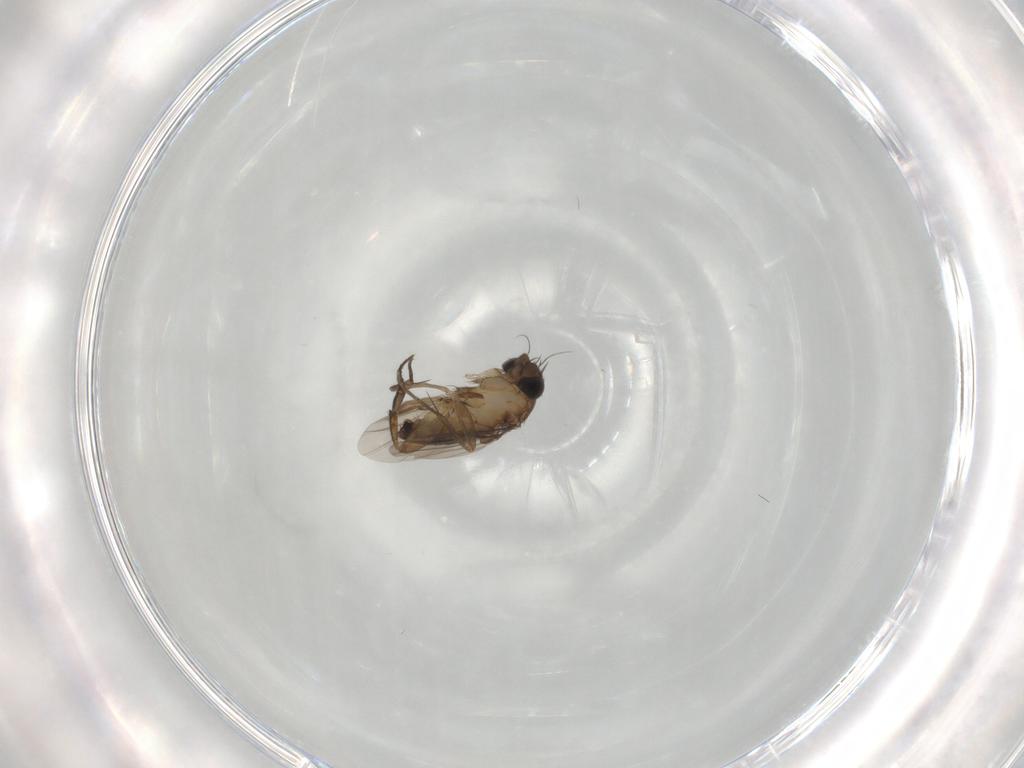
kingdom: Animalia
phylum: Arthropoda
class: Insecta
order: Diptera
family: Phoridae
